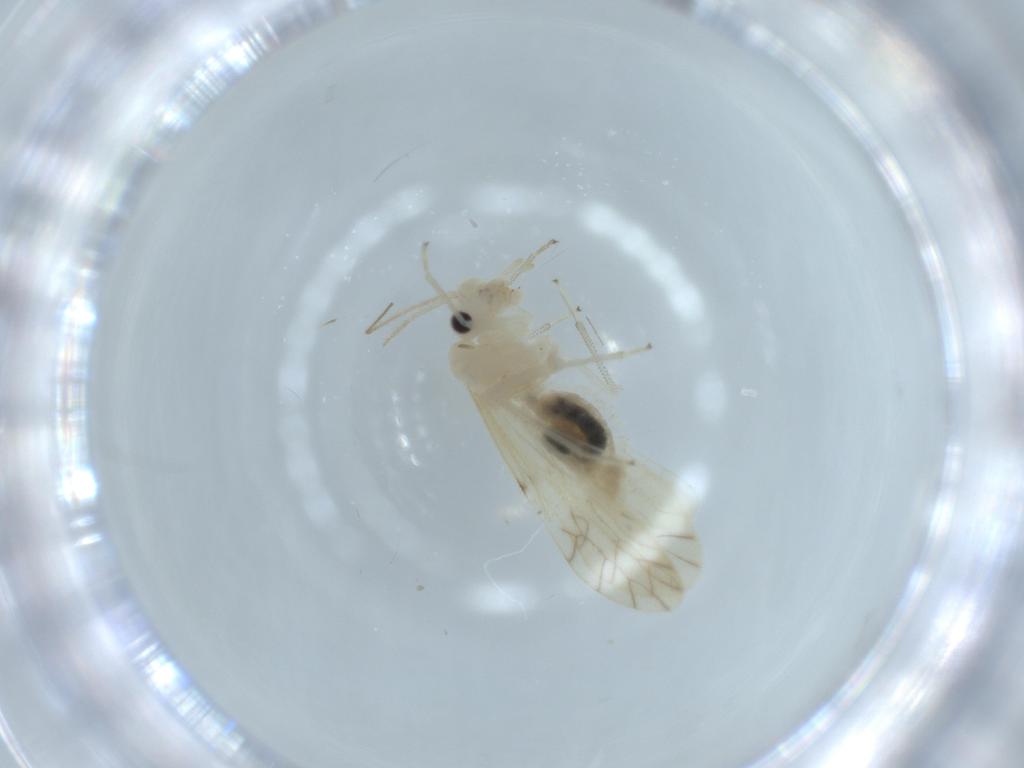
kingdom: Animalia
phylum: Arthropoda
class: Insecta
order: Psocodea
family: Caeciliusidae
